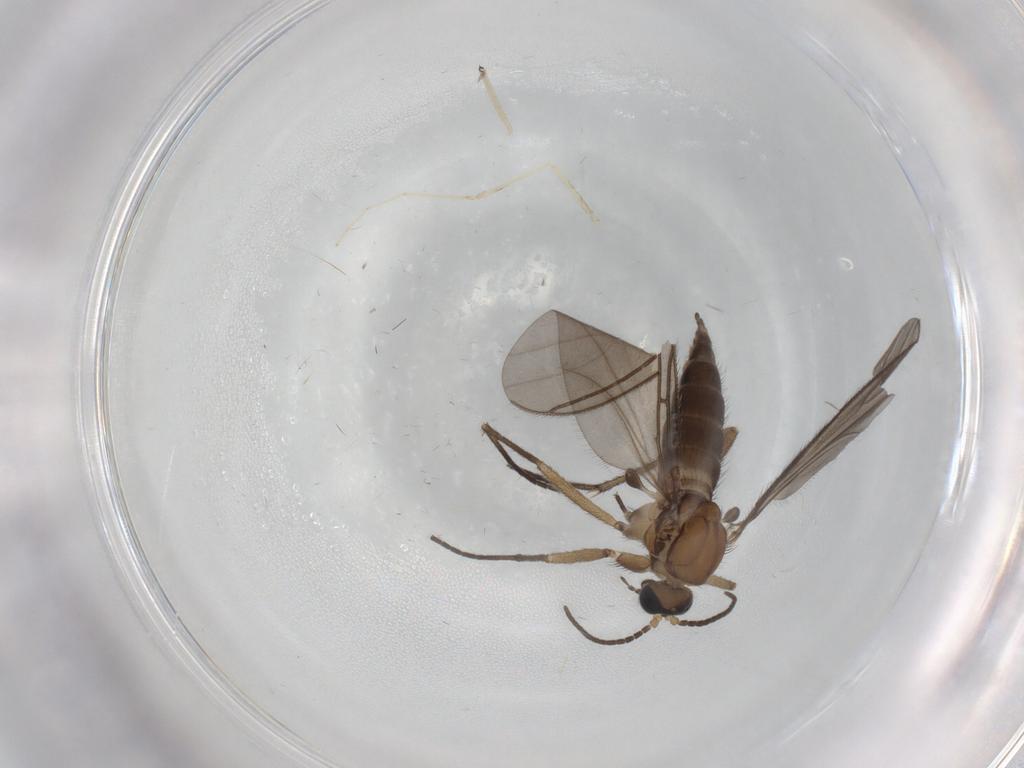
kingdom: Animalia
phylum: Arthropoda
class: Insecta
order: Diptera
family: Sciaridae
